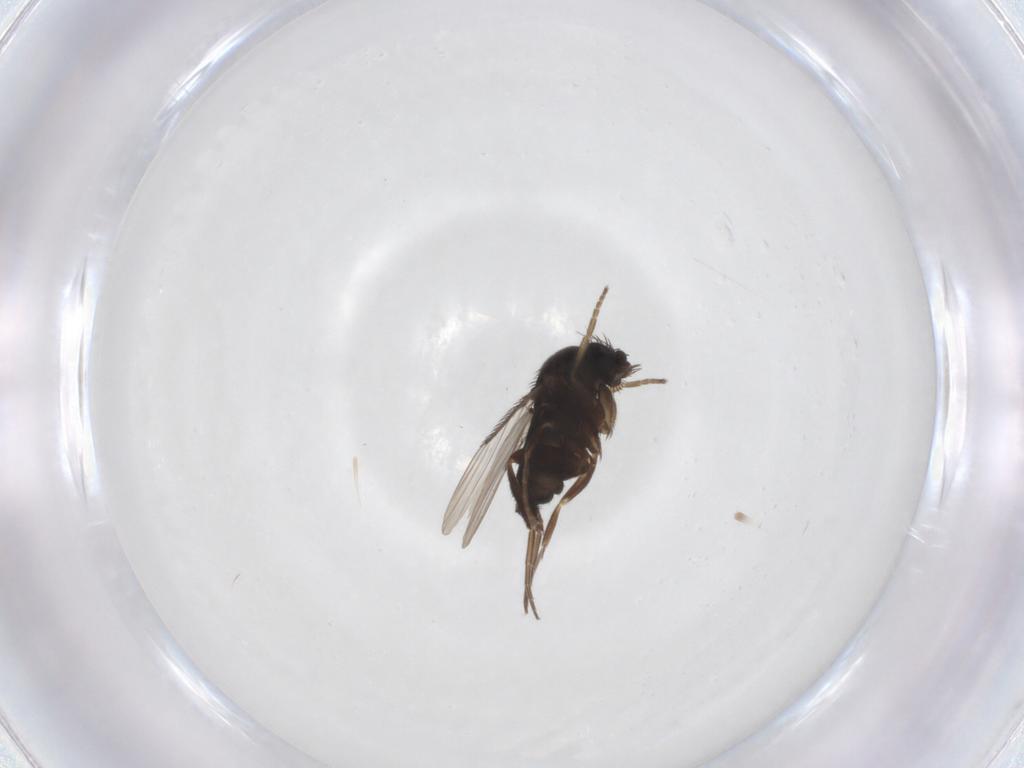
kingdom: Animalia
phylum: Arthropoda
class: Insecta
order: Diptera
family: Phoridae
